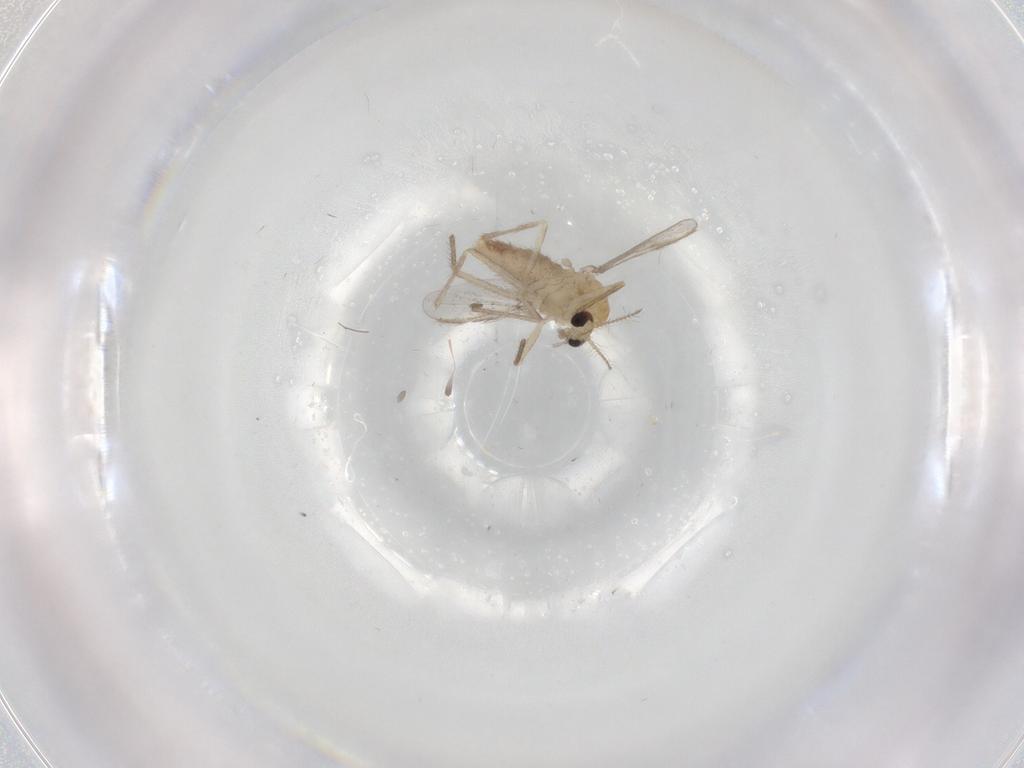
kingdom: Animalia
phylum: Arthropoda
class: Insecta
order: Diptera
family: Chironomidae
